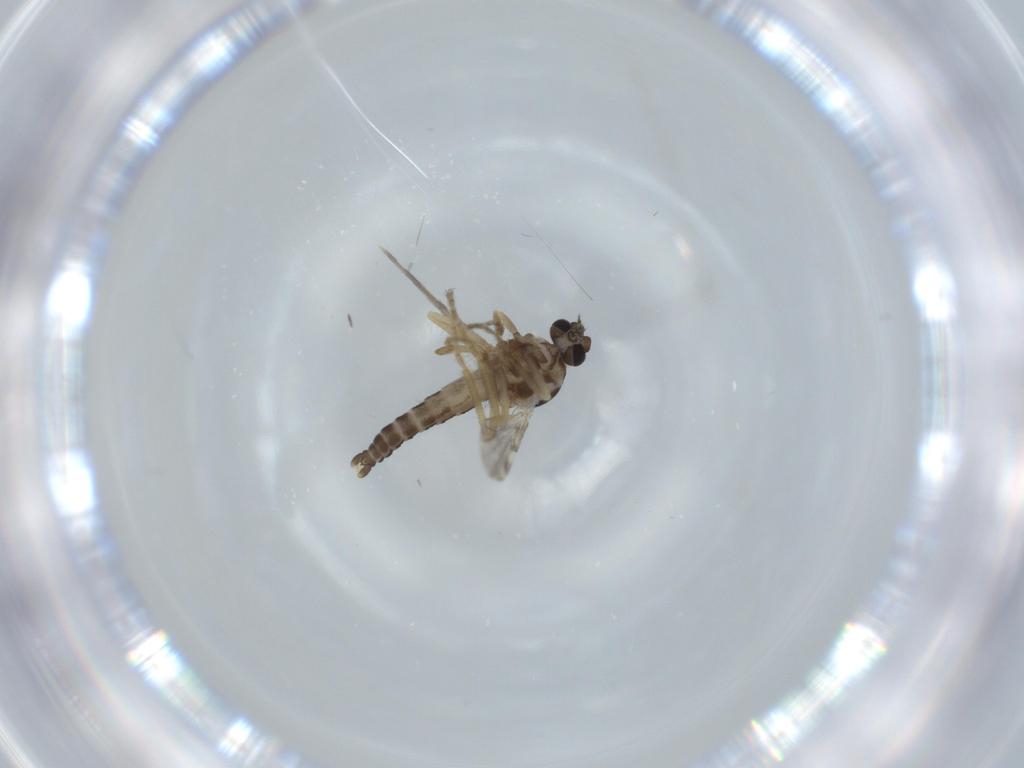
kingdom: Animalia
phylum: Arthropoda
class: Insecta
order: Diptera
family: Ceratopogonidae
